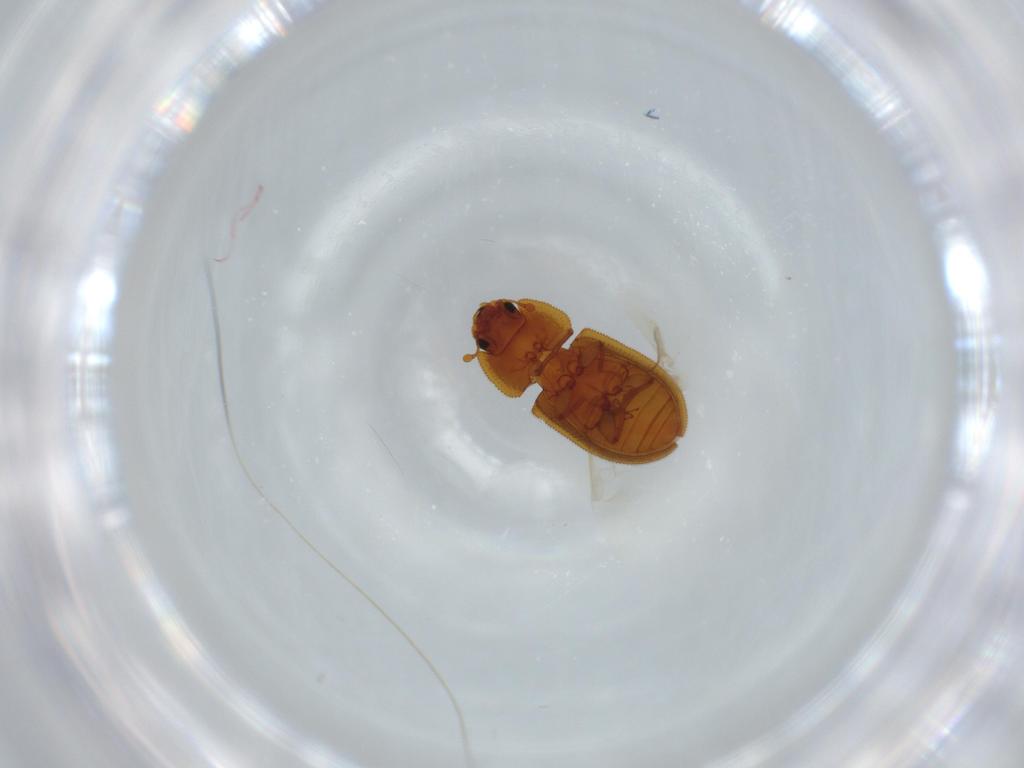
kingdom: Animalia
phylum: Arthropoda
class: Insecta
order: Coleoptera
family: Zopheridae
